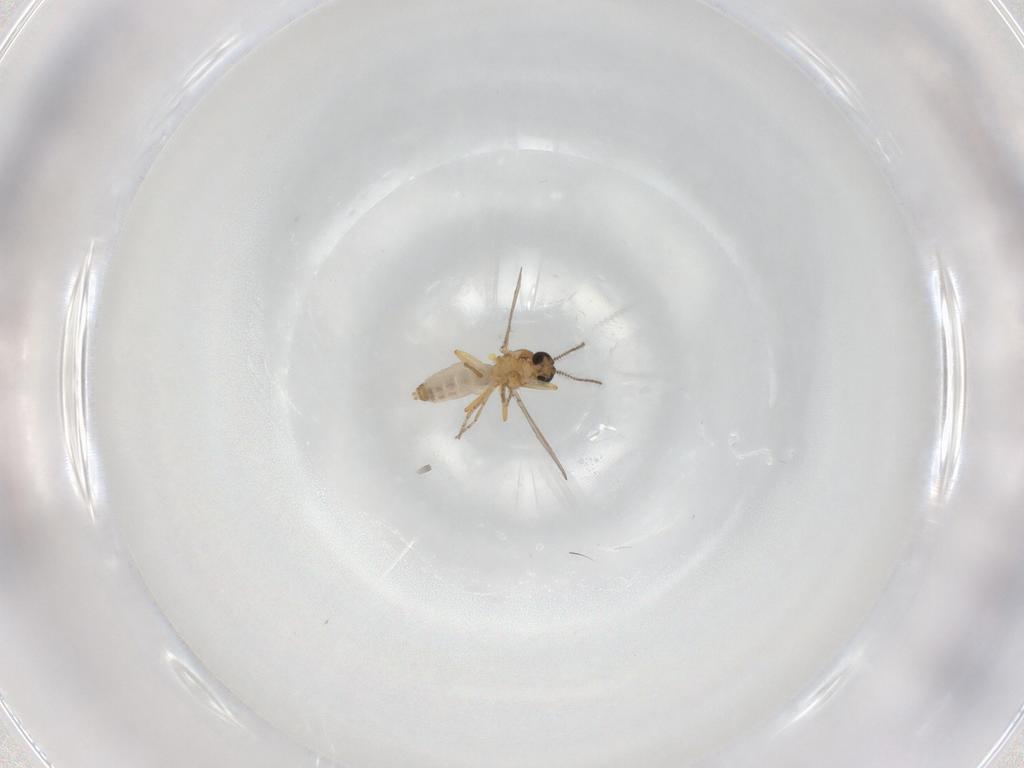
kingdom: Animalia
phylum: Arthropoda
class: Insecta
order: Diptera
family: Ceratopogonidae
